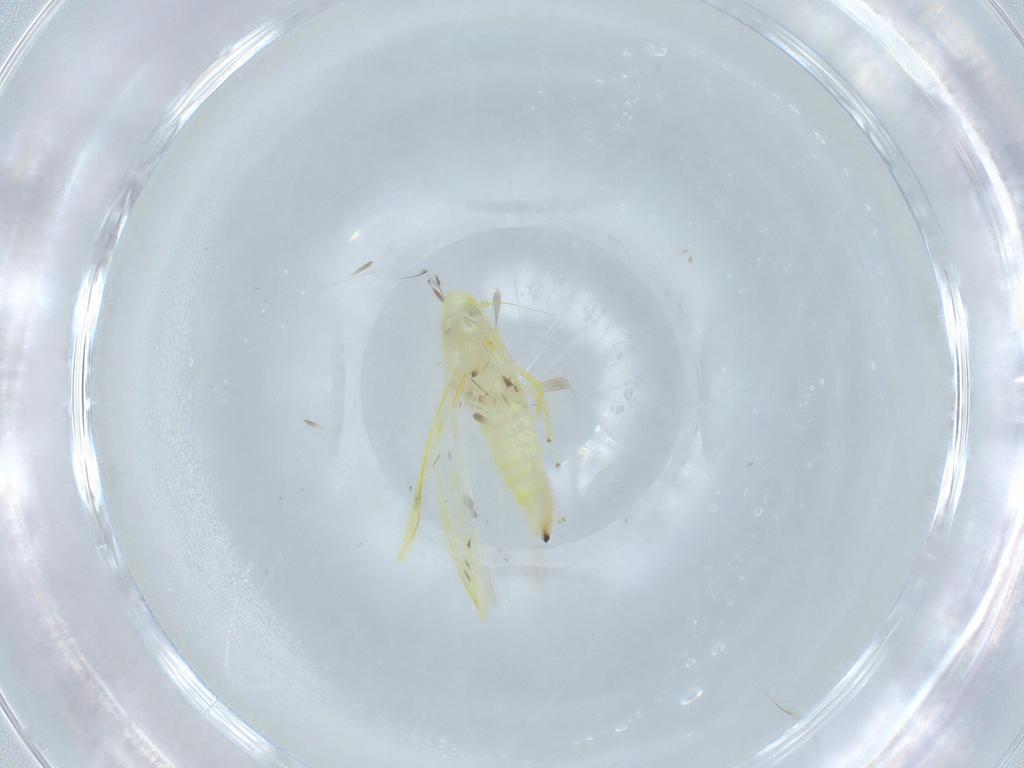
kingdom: Animalia
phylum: Arthropoda
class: Insecta
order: Hemiptera
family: Cicadellidae
